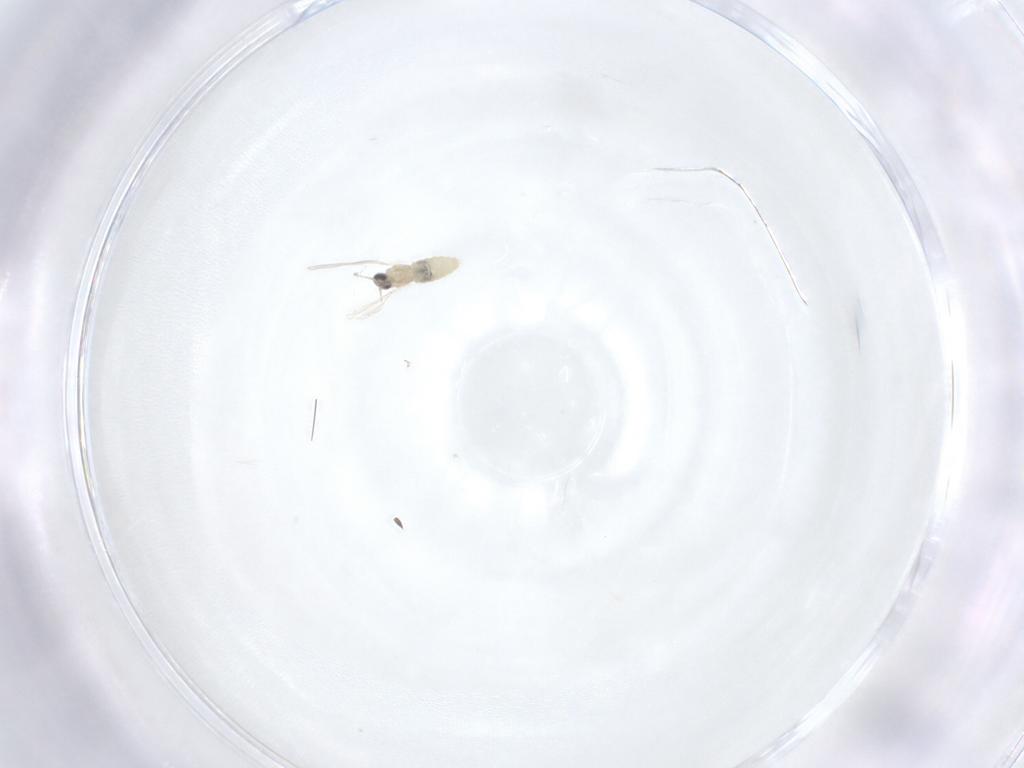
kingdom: Animalia
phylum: Arthropoda
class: Insecta
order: Diptera
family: Cecidomyiidae
